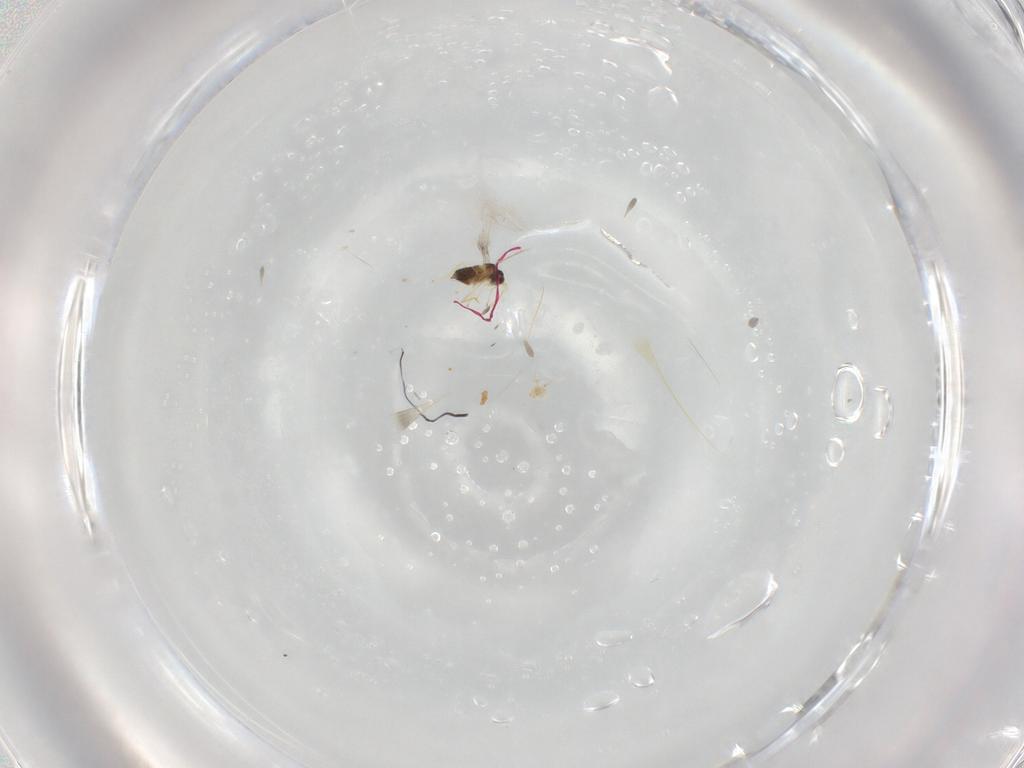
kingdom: Animalia
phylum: Arthropoda
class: Insecta
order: Hymenoptera
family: Mymaridae
